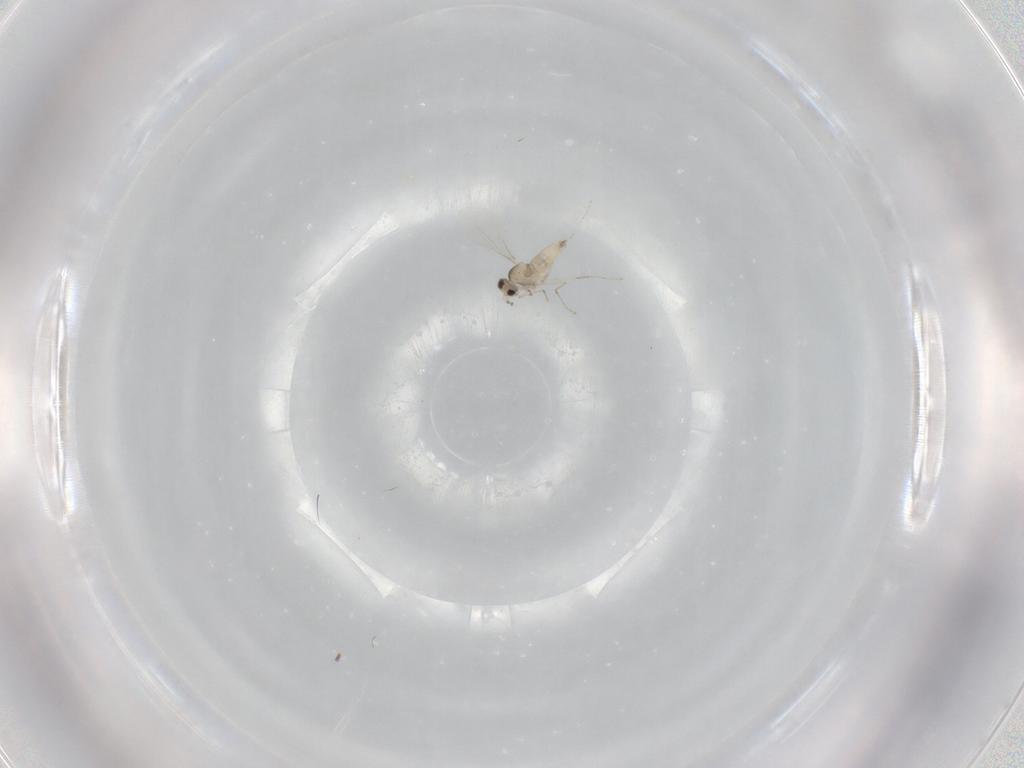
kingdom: Animalia
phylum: Arthropoda
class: Insecta
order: Diptera
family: Cecidomyiidae
